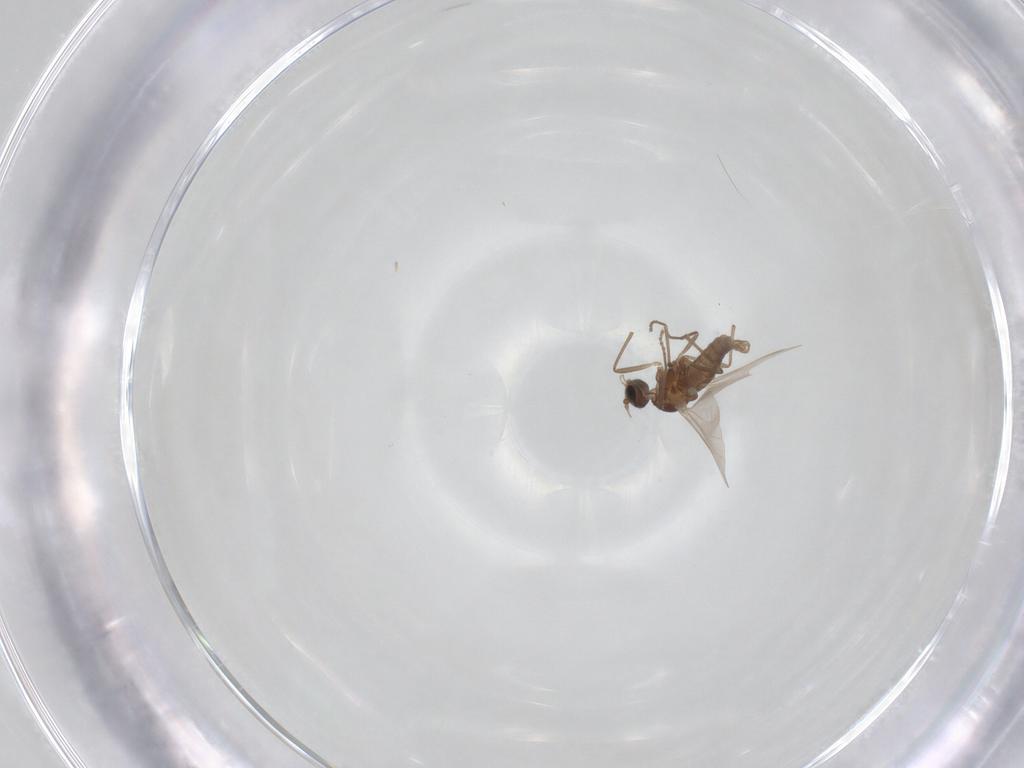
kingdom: Animalia
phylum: Arthropoda
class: Insecta
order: Diptera
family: Cecidomyiidae
